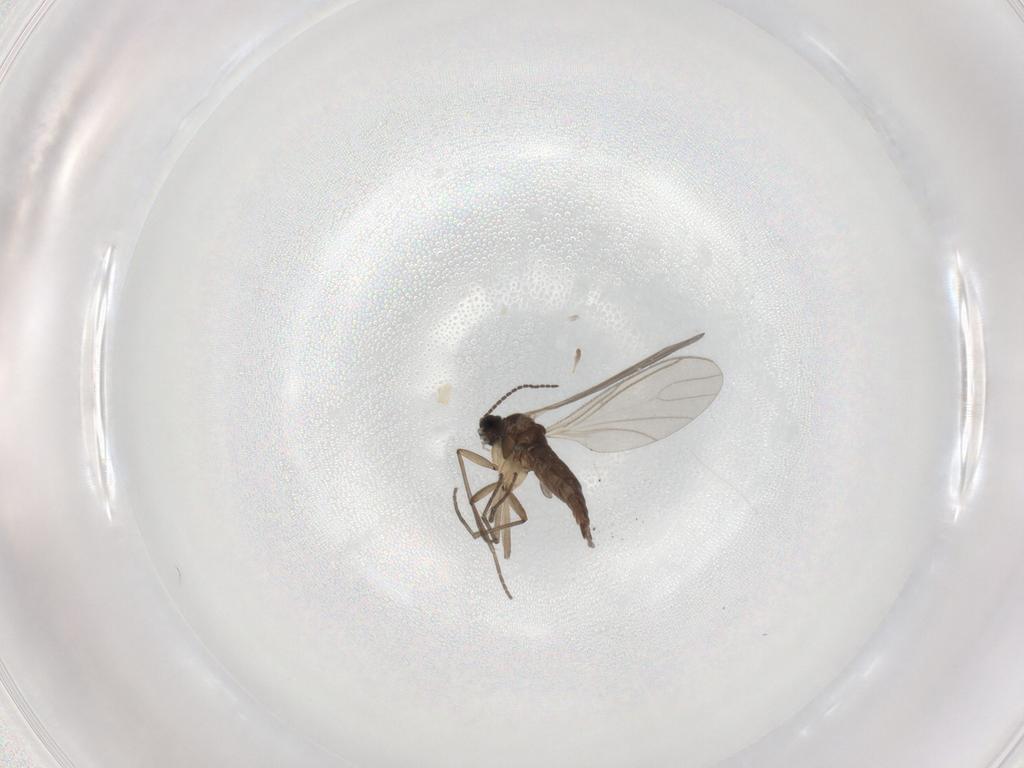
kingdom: Animalia
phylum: Arthropoda
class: Insecta
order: Diptera
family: Sciaridae
